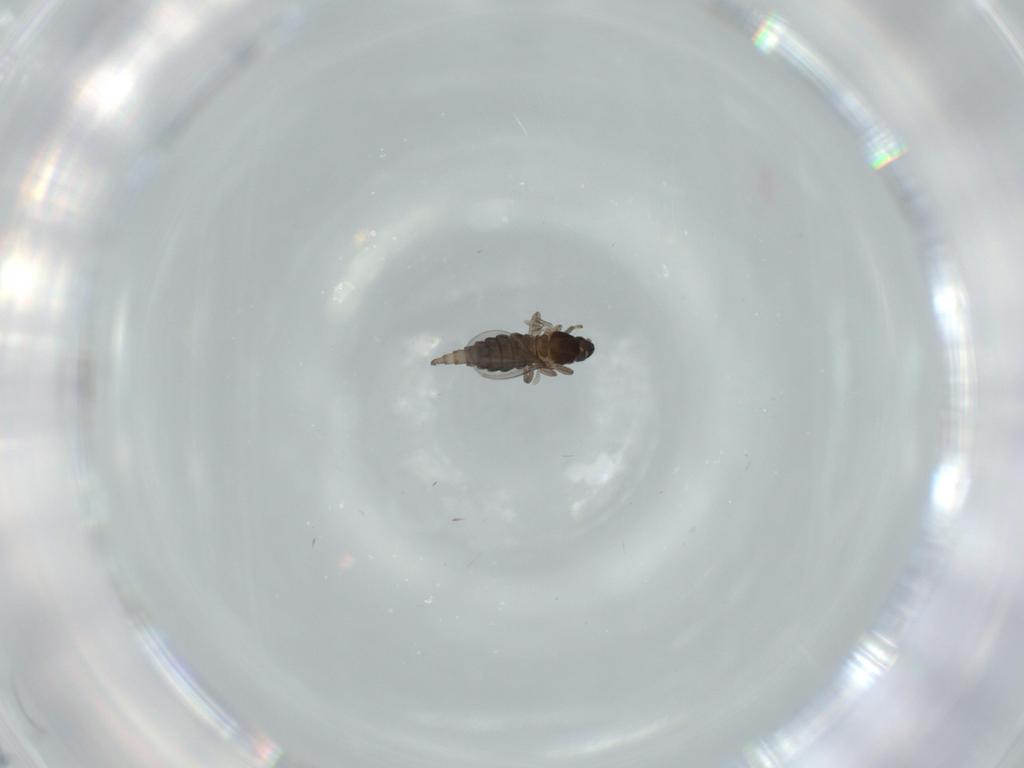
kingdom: Animalia
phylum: Arthropoda
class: Insecta
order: Diptera
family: Cecidomyiidae
